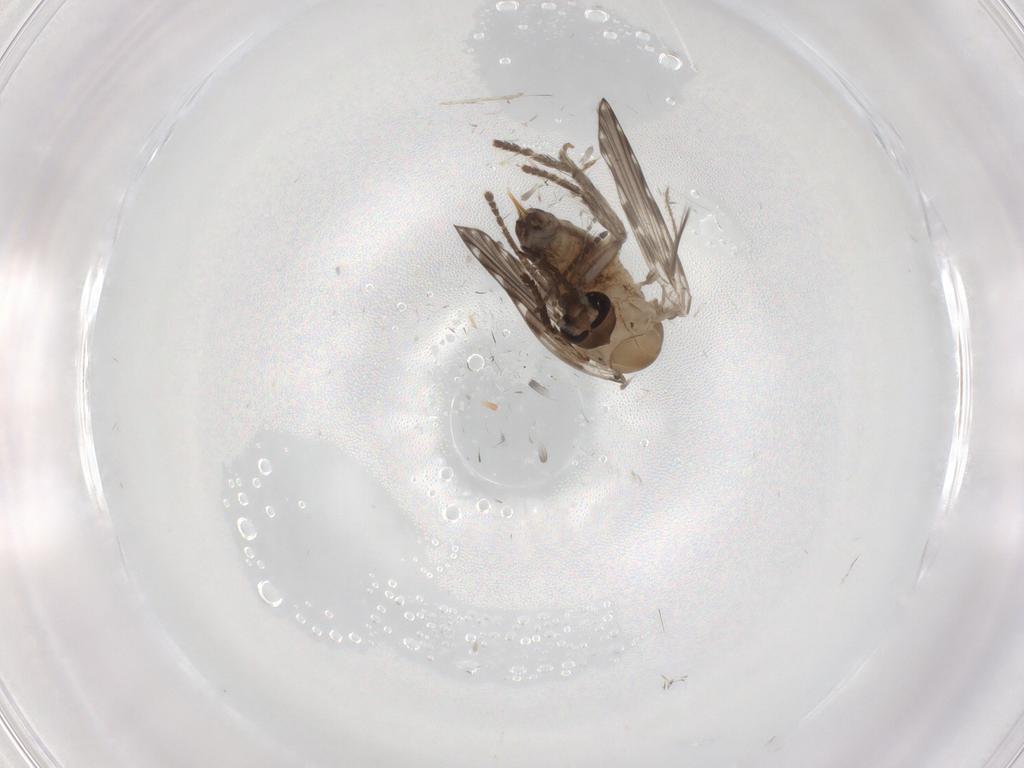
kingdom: Animalia
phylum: Arthropoda
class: Insecta
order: Diptera
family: Psychodidae
